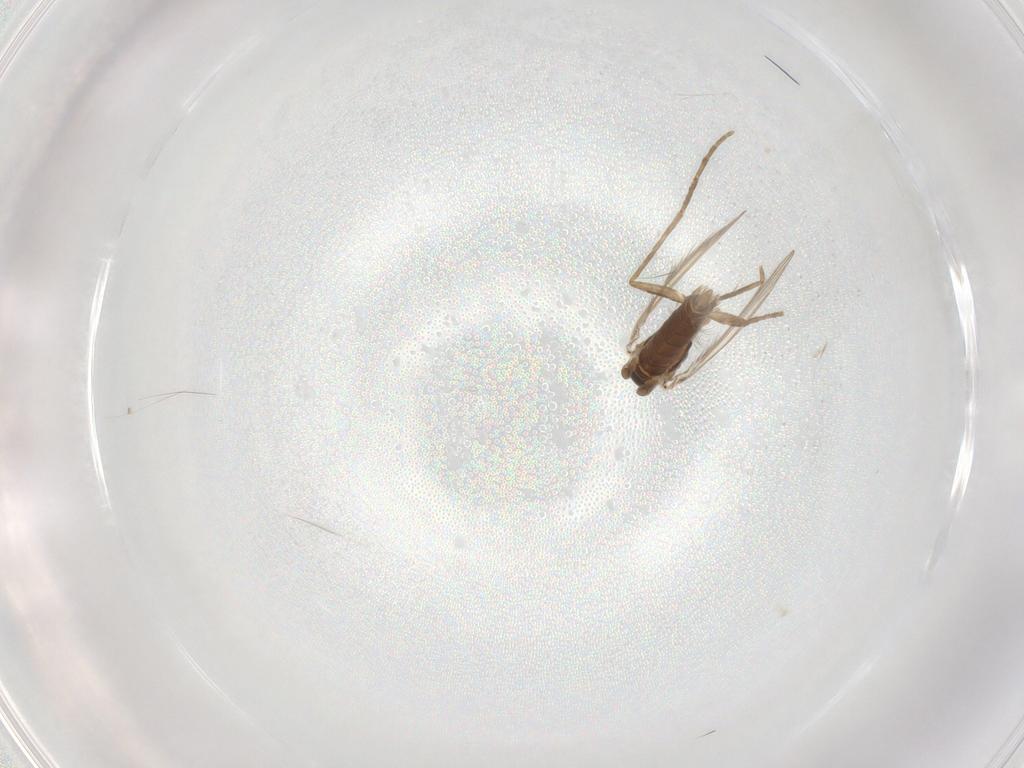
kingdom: Animalia
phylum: Arthropoda
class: Insecta
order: Diptera
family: Psychodidae
